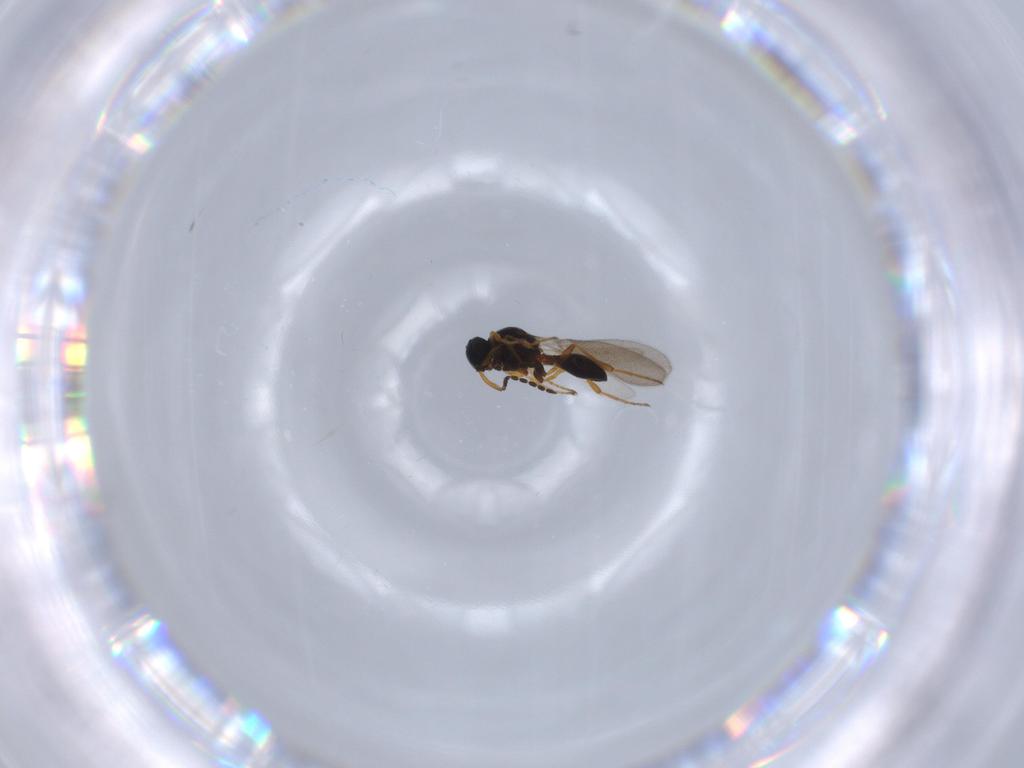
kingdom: Animalia
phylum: Arthropoda
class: Insecta
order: Hymenoptera
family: Platygastridae
